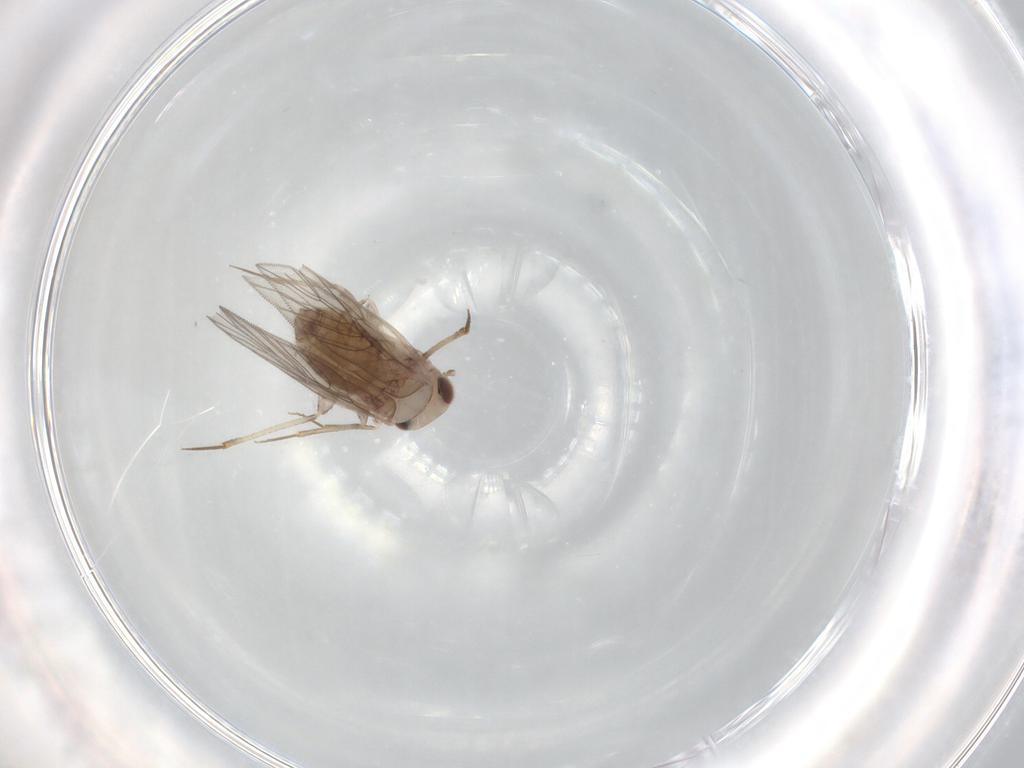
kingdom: Animalia
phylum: Arthropoda
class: Insecta
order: Psocodea
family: Lepidopsocidae
